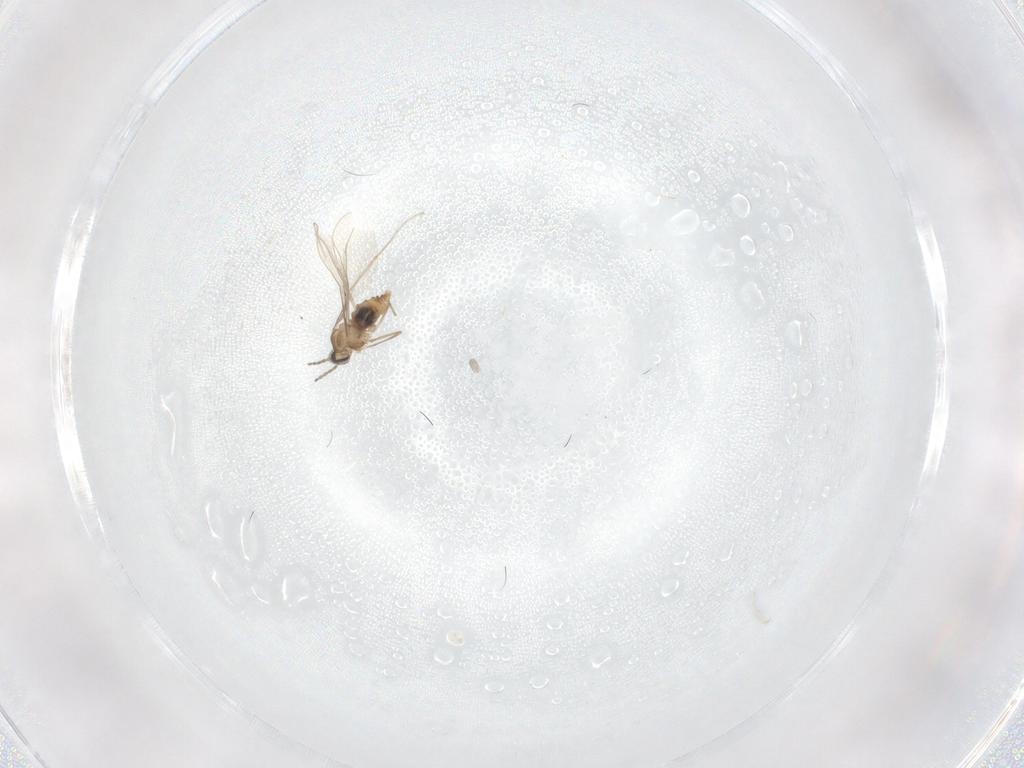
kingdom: Animalia
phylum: Arthropoda
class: Insecta
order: Diptera
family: Cecidomyiidae
